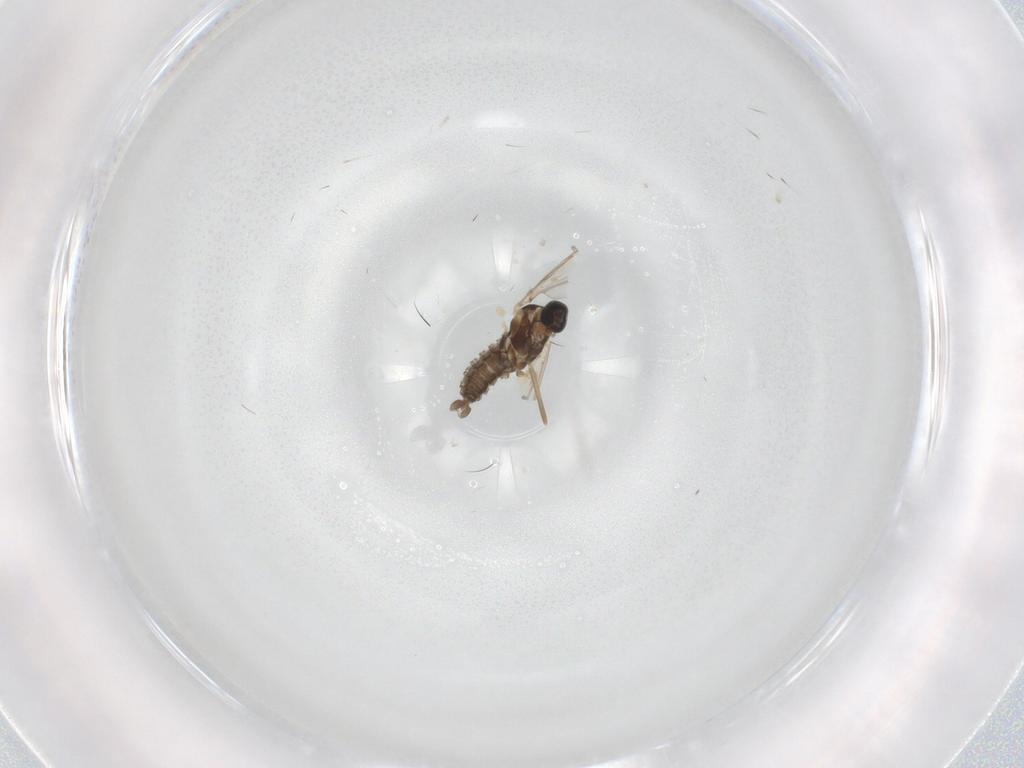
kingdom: Animalia
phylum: Arthropoda
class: Insecta
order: Diptera
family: Cecidomyiidae
